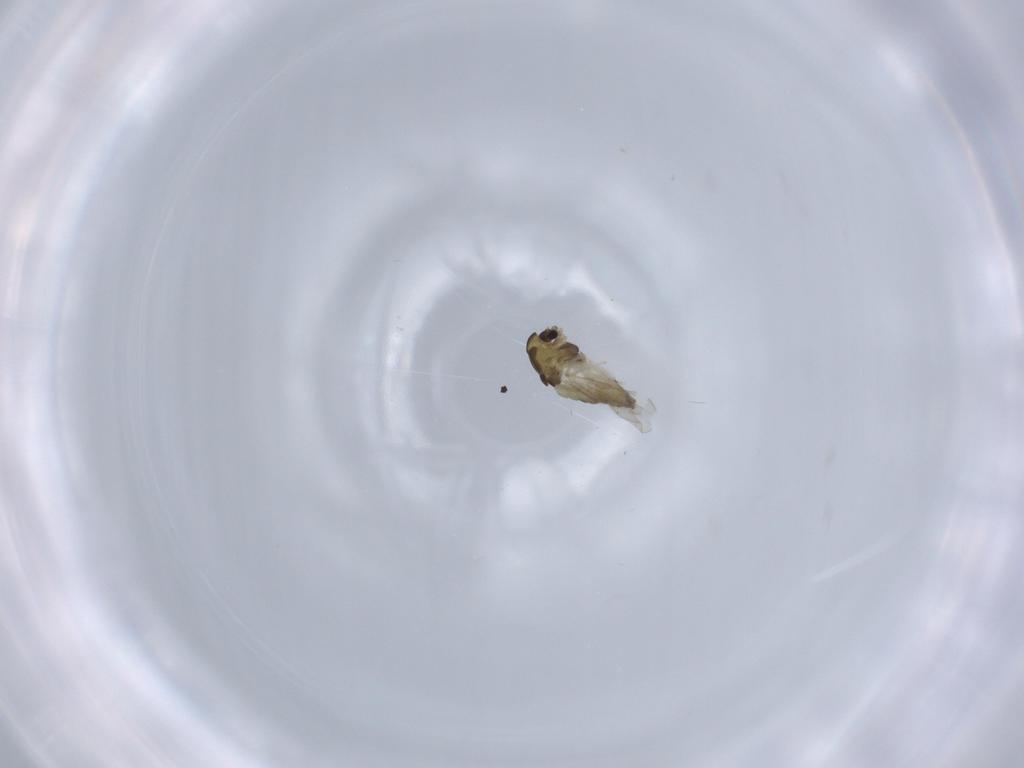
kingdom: Animalia
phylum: Arthropoda
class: Insecta
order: Diptera
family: Chironomidae
